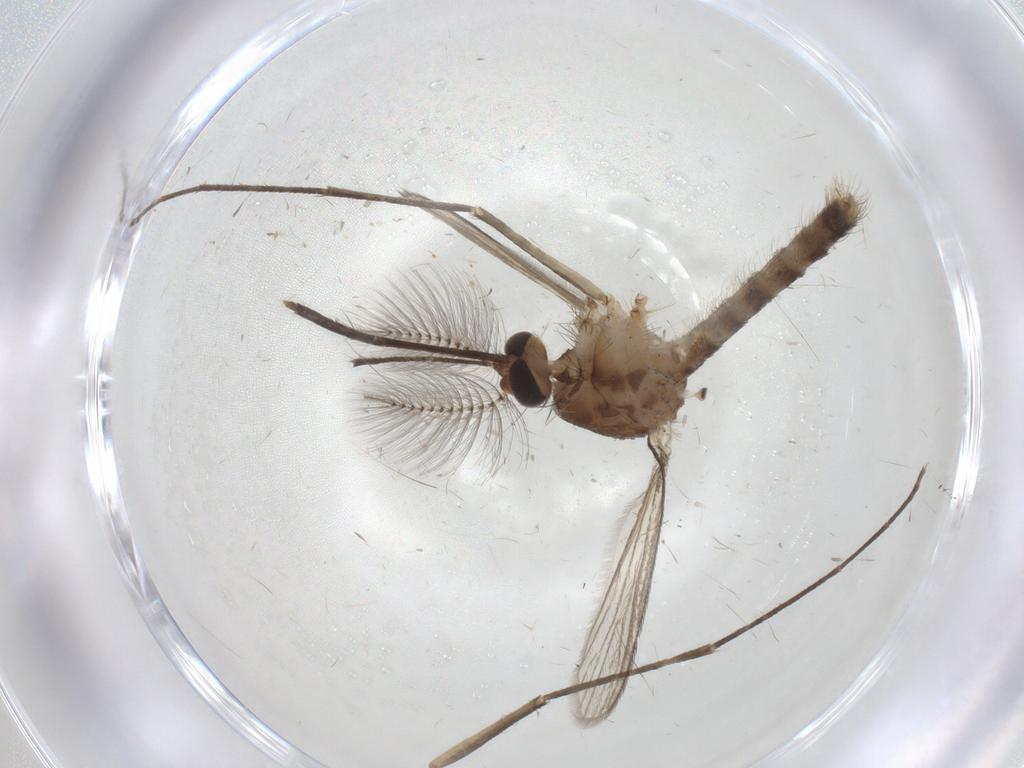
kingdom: Animalia
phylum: Arthropoda
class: Insecta
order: Diptera
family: Culicidae
